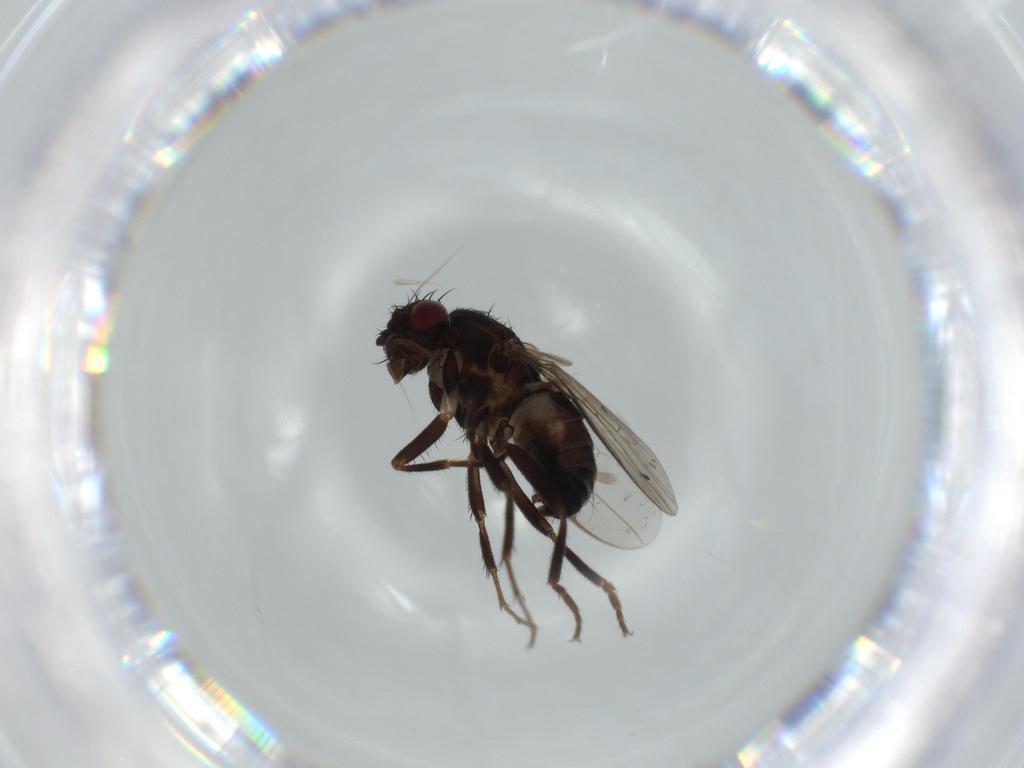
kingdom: Animalia
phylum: Arthropoda
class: Insecta
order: Diptera
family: Sphaeroceridae
